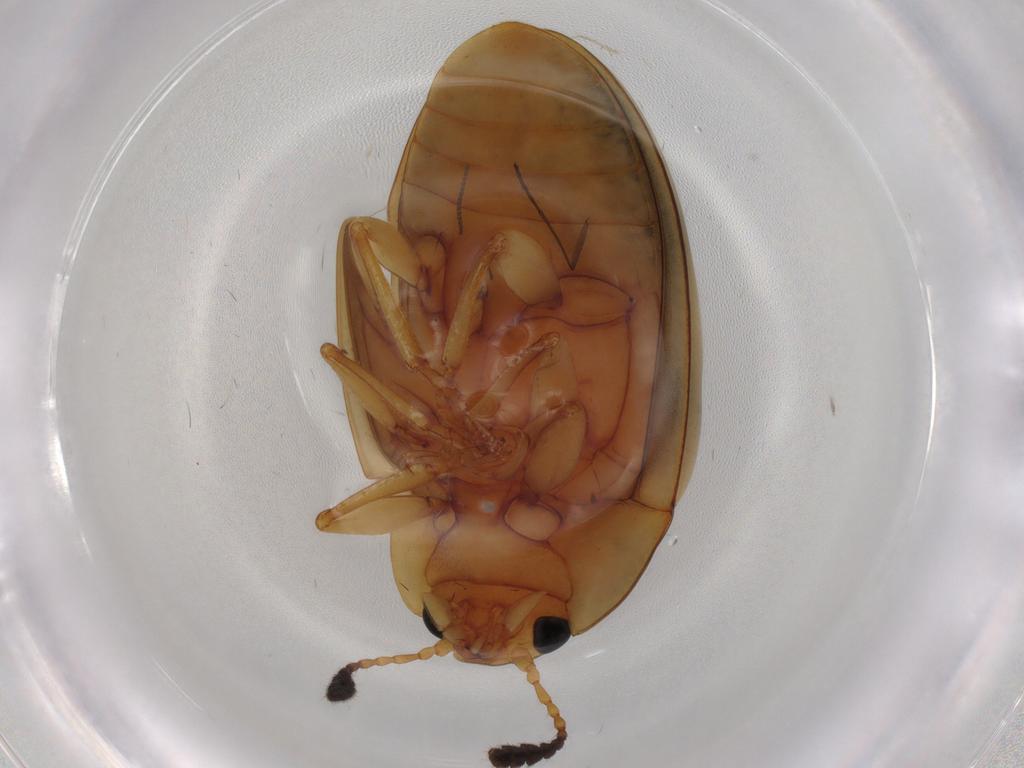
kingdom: Animalia
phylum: Arthropoda
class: Insecta
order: Coleoptera
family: Erotylidae
